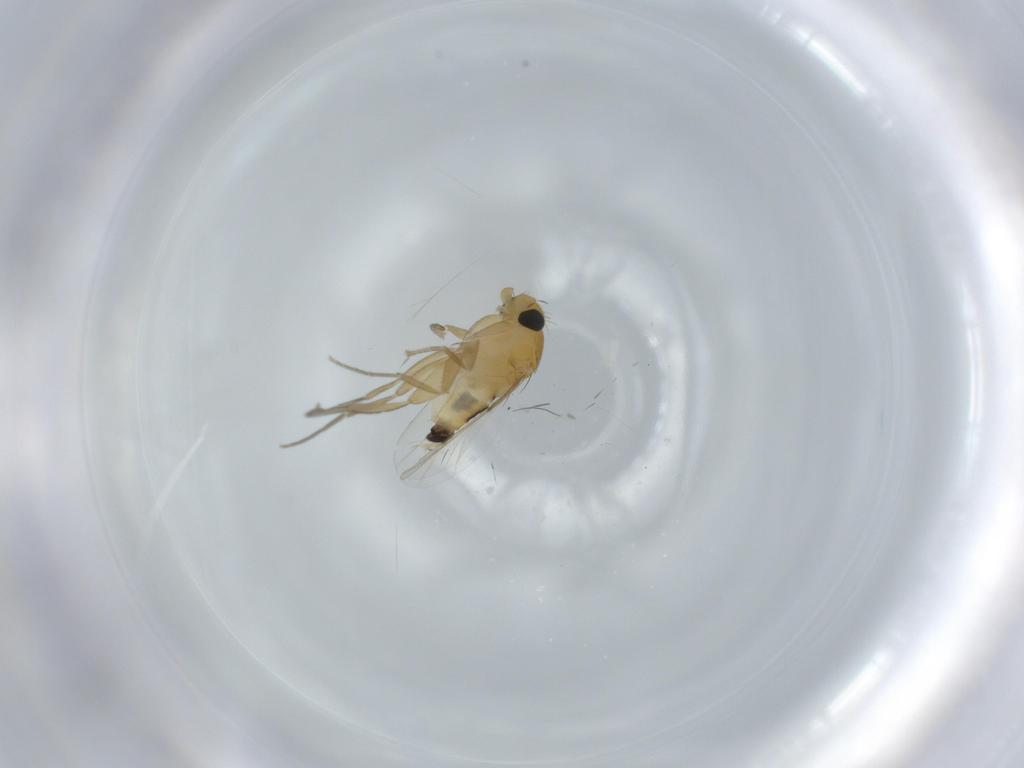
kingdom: Animalia
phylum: Arthropoda
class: Insecta
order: Diptera
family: Phoridae
